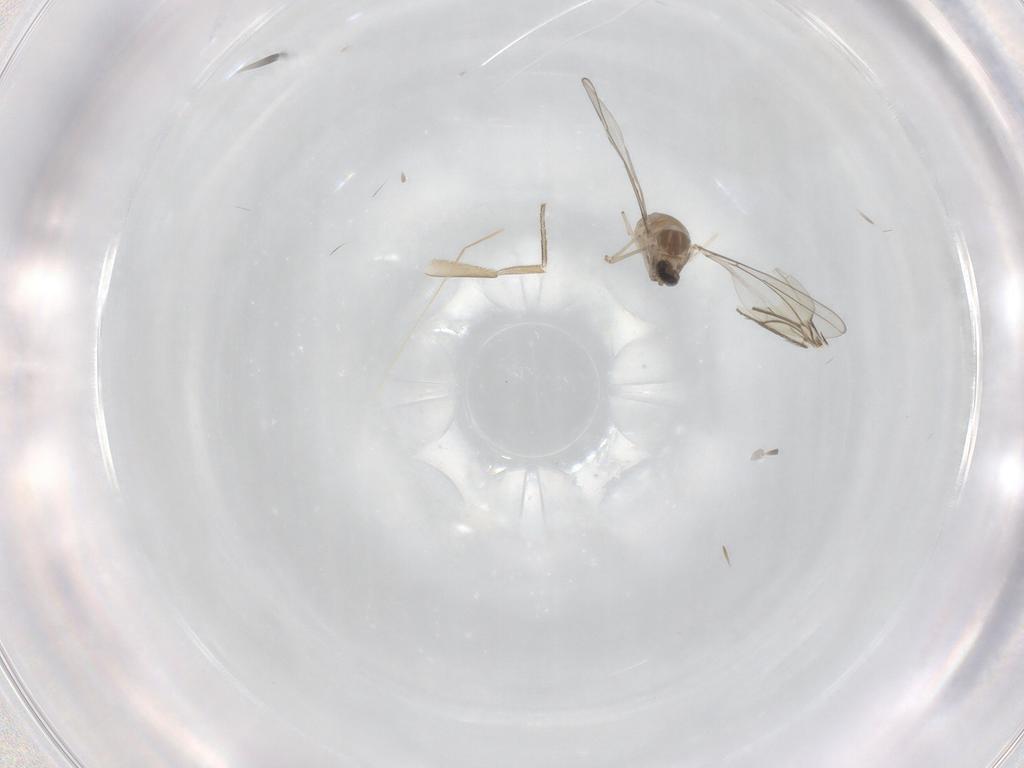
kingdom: Animalia
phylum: Arthropoda
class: Insecta
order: Diptera
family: Cecidomyiidae
